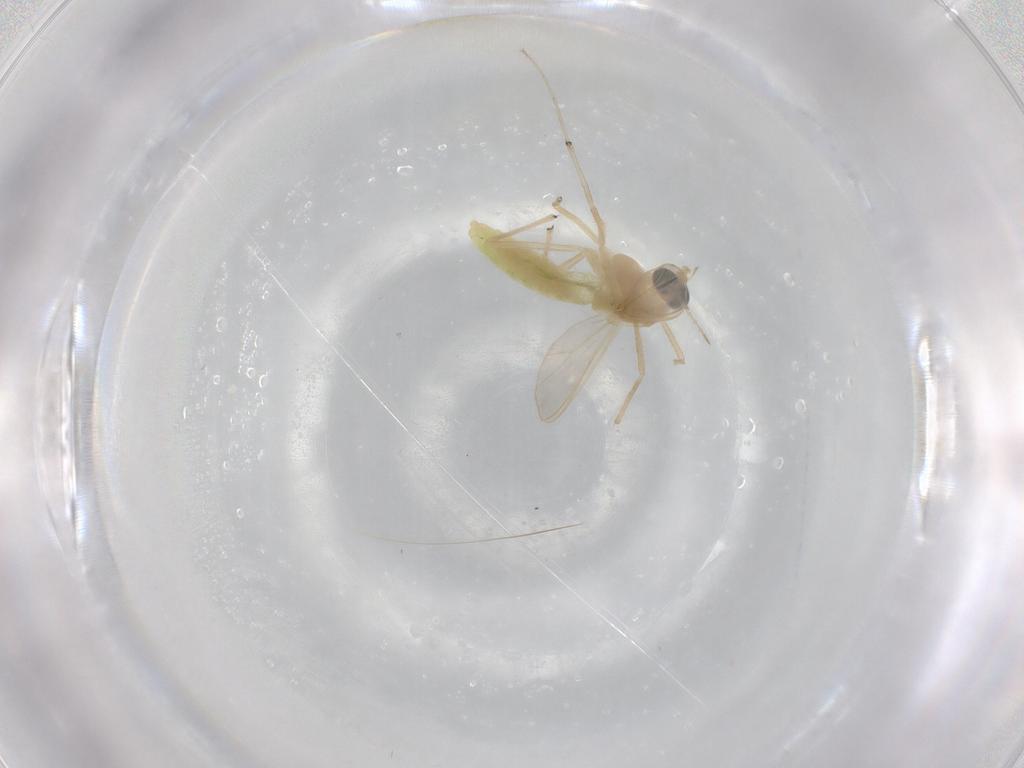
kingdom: Animalia
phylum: Arthropoda
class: Insecta
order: Diptera
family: Chironomidae
